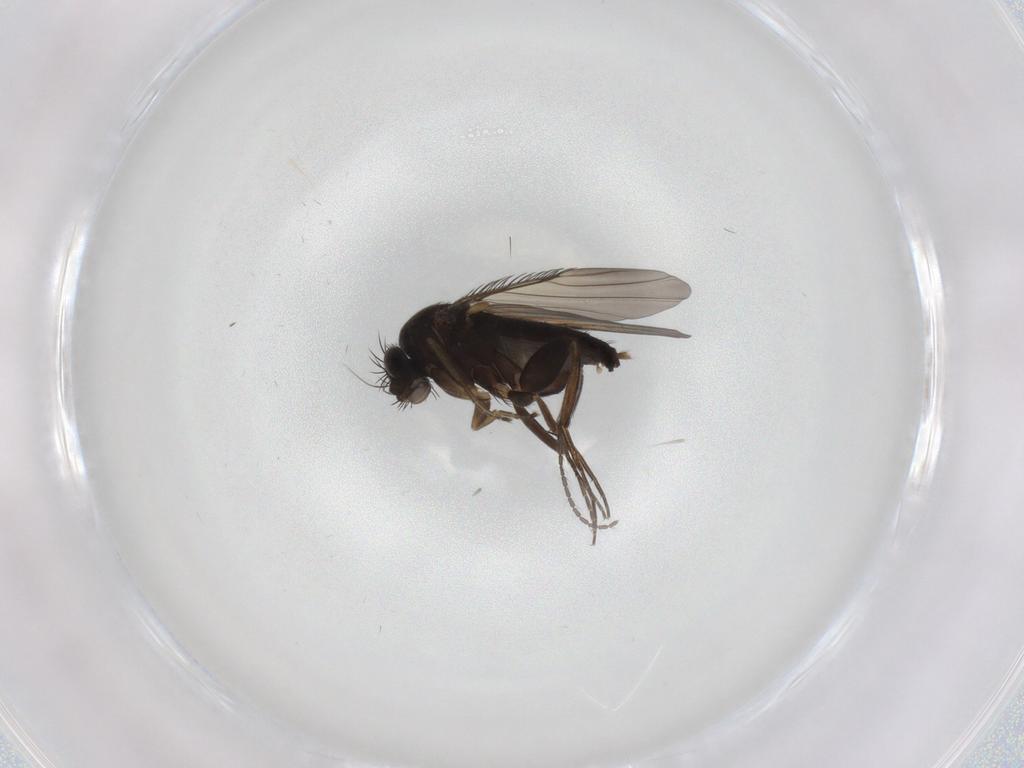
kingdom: Animalia
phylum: Arthropoda
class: Insecta
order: Diptera
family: Phoridae
